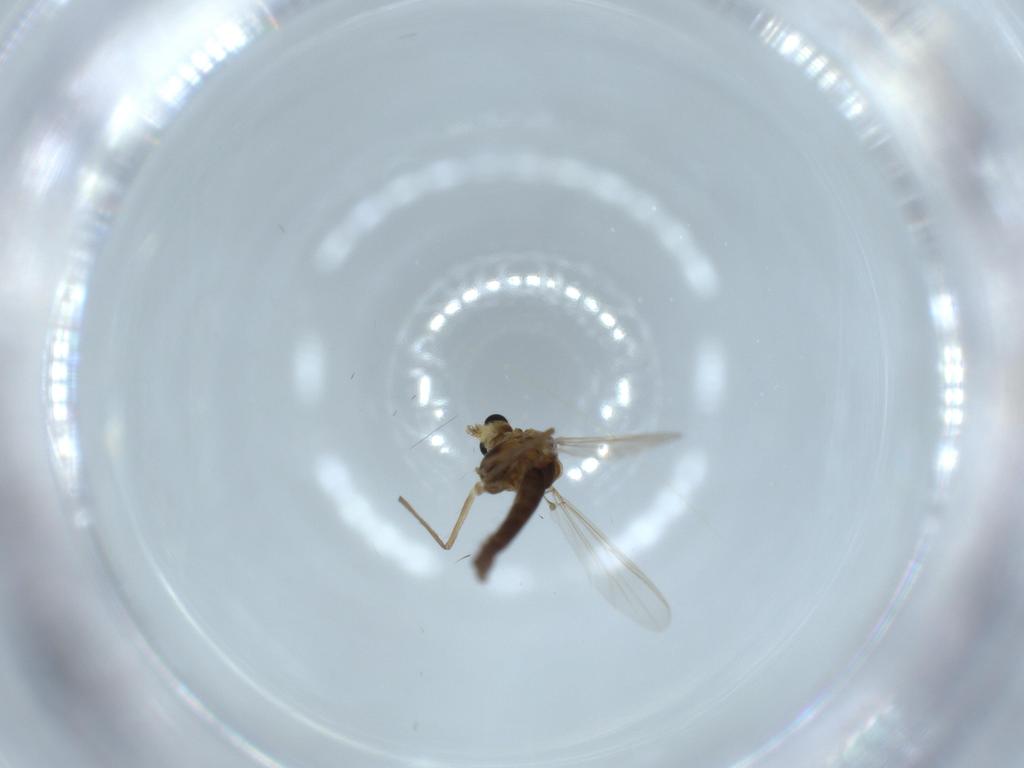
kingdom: Animalia
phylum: Arthropoda
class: Insecta
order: Diptera
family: Chironomidae
